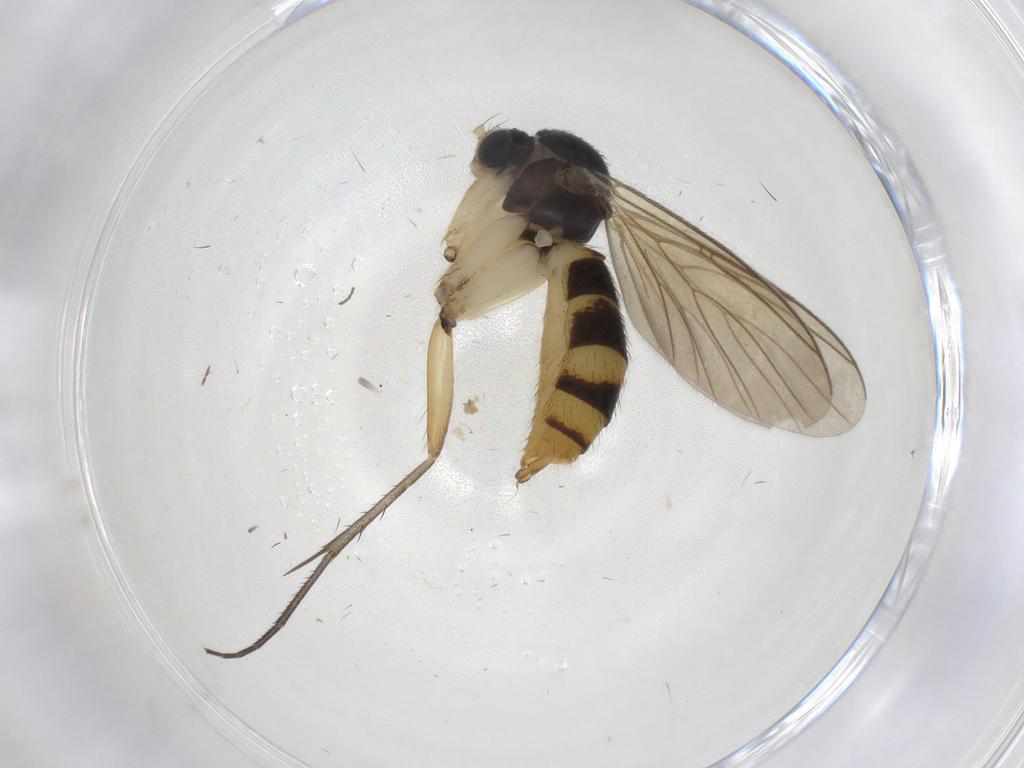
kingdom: Animalia
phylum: Arthropoda
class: Insecta
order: Diptera
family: Mycetophilidae
